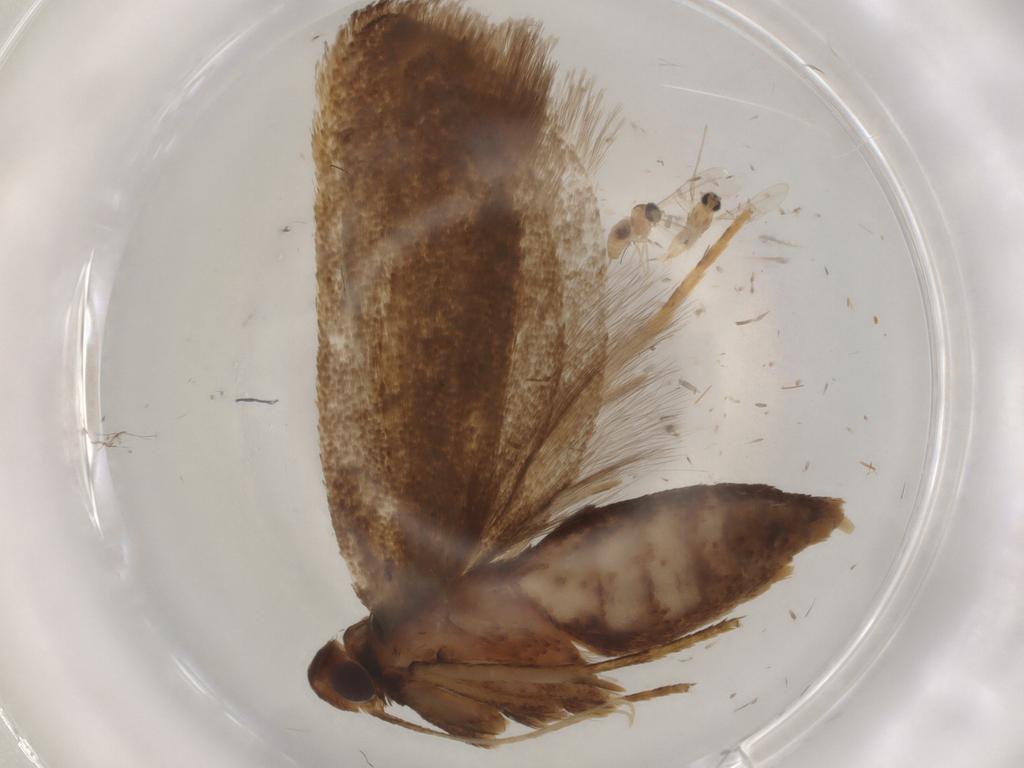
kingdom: Animalia
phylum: Arthropoda
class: Insecta
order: Lepidoptera
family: Lecithoceridae
